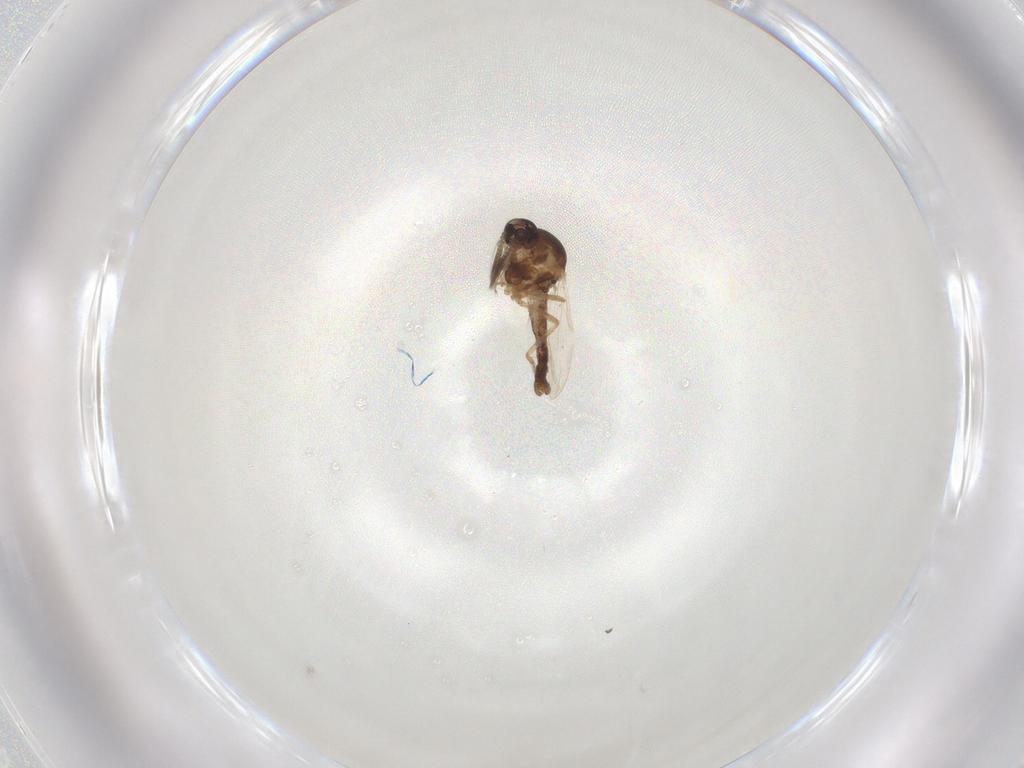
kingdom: Animalia
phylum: Arthropoda
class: Insecta
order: Diptera
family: Ceratopogonidae
